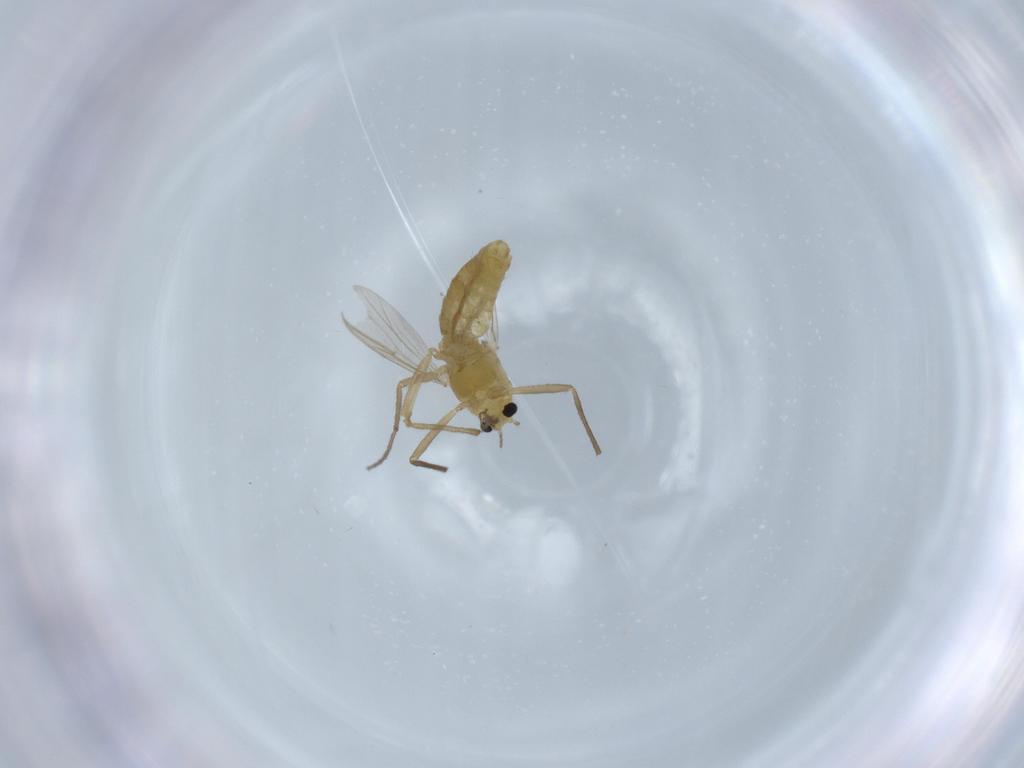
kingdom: Animalia
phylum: Arthropoda
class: Insecta
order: Diptera
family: Chironomidae
